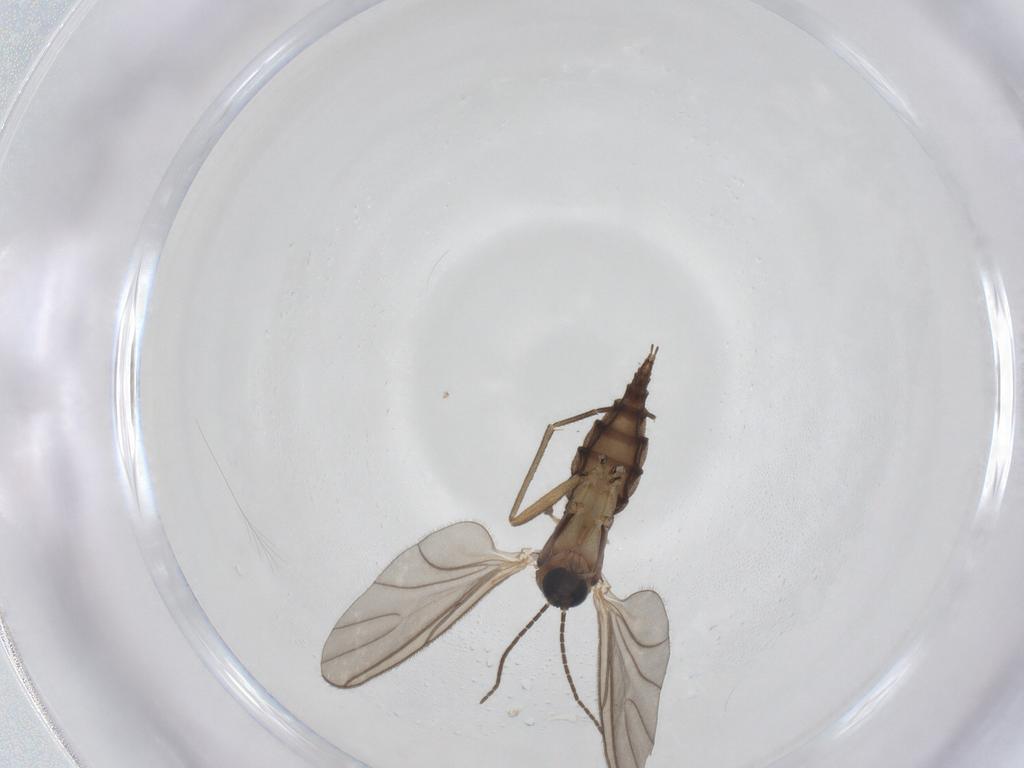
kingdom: Animalia
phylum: Arthropoda
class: Insecta
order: Diptera
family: Sciaridae
